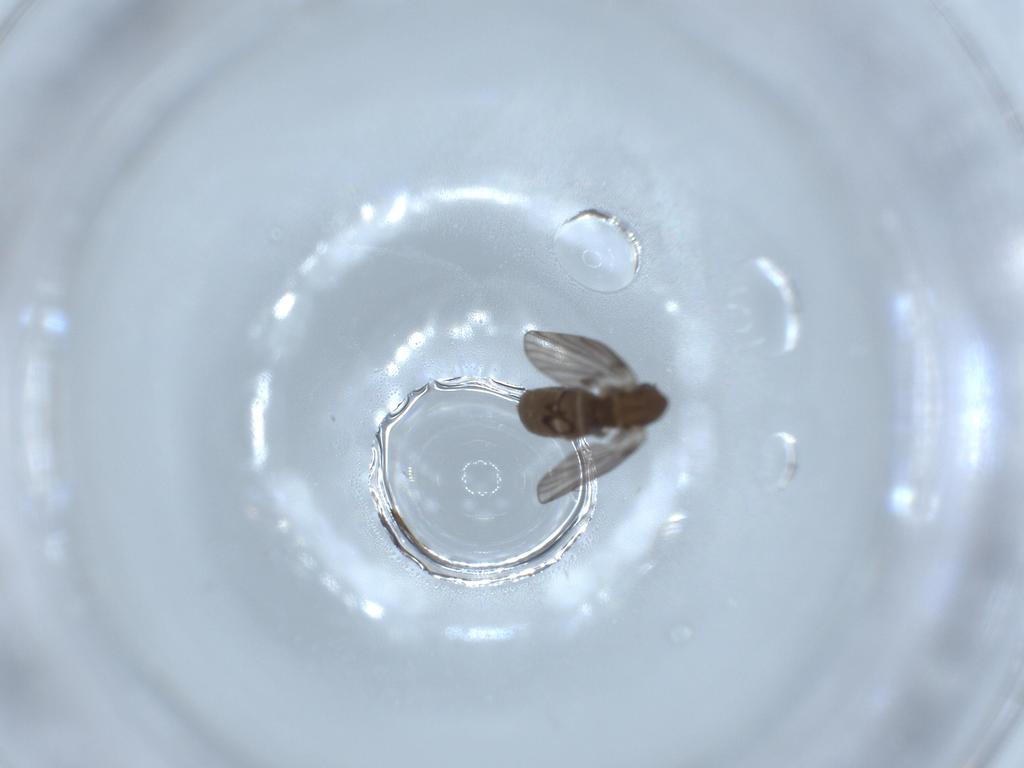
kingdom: Animalia
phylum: Arthropoda
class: Insecta
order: Diptera
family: Psychodidae
